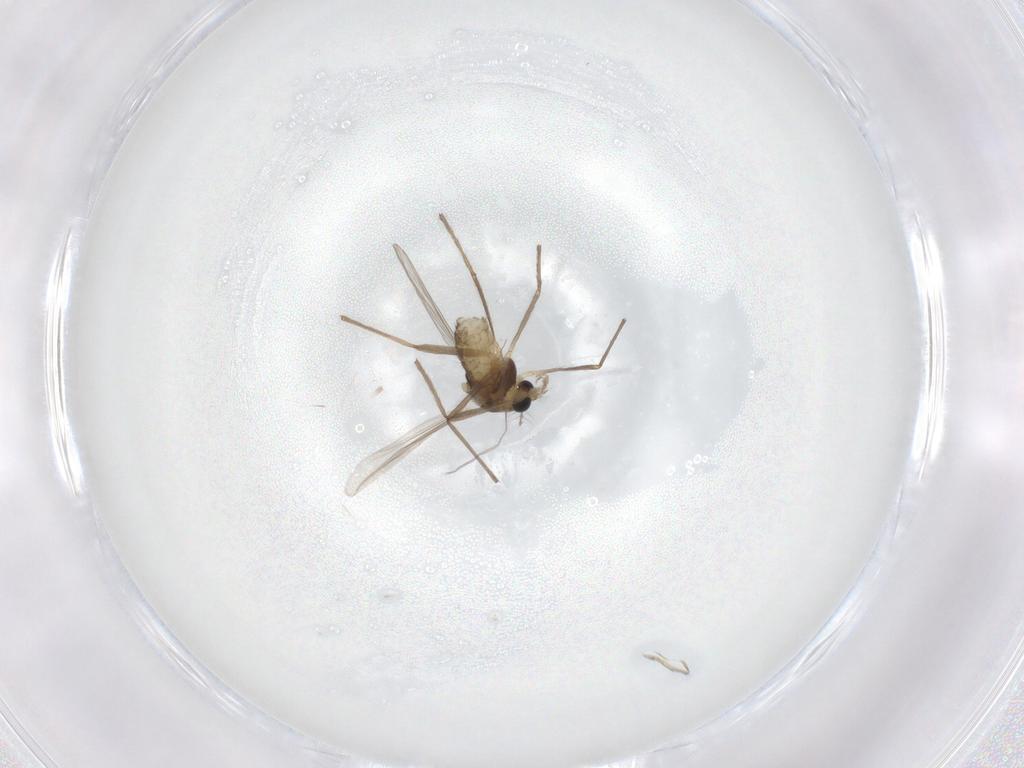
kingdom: Animalia
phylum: Arthropoda
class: Insecta
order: Diptera
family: Chironomidae
